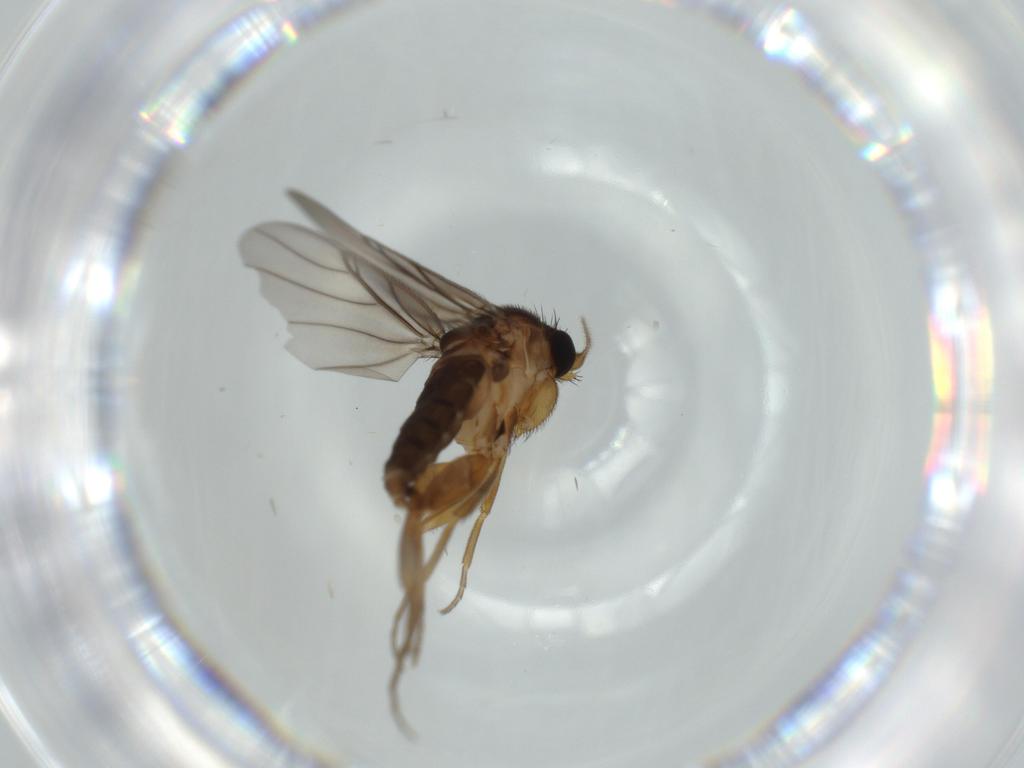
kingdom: Animalia
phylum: Arthropoda
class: Insecta
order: Diptera
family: Phoridae
